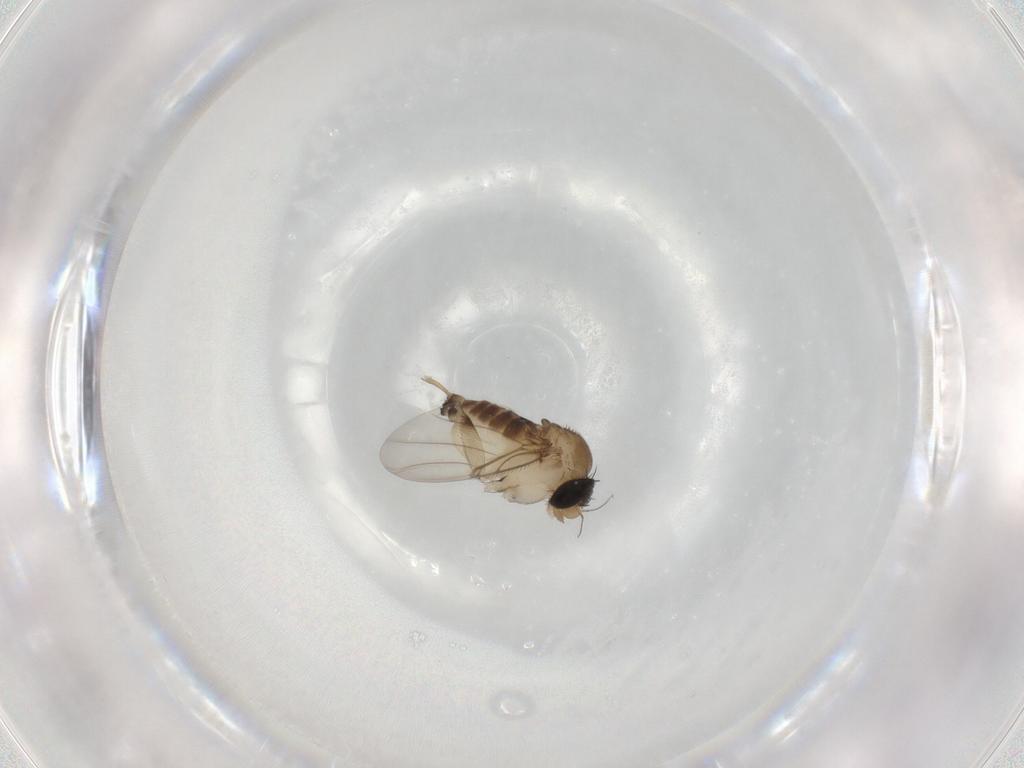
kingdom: Animalia
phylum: Arthropoda
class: Insecta
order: Diptera
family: Phoridae
